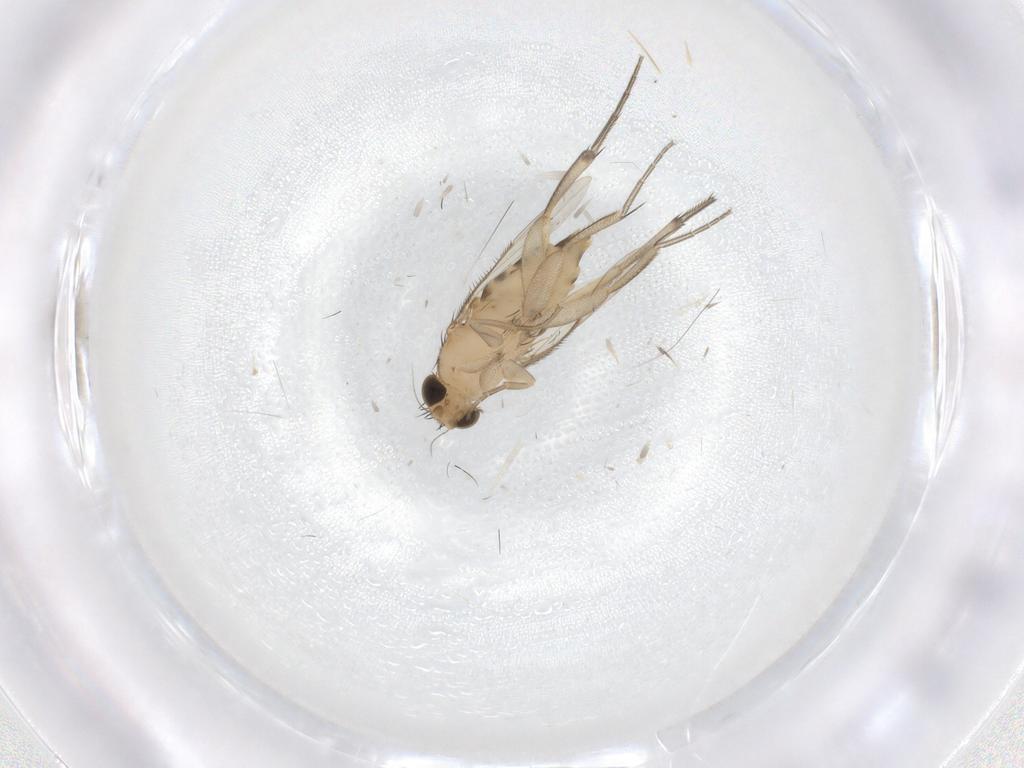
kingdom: Animalia
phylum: Arthropoda
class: Insecta
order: Diptera
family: Phoridae
